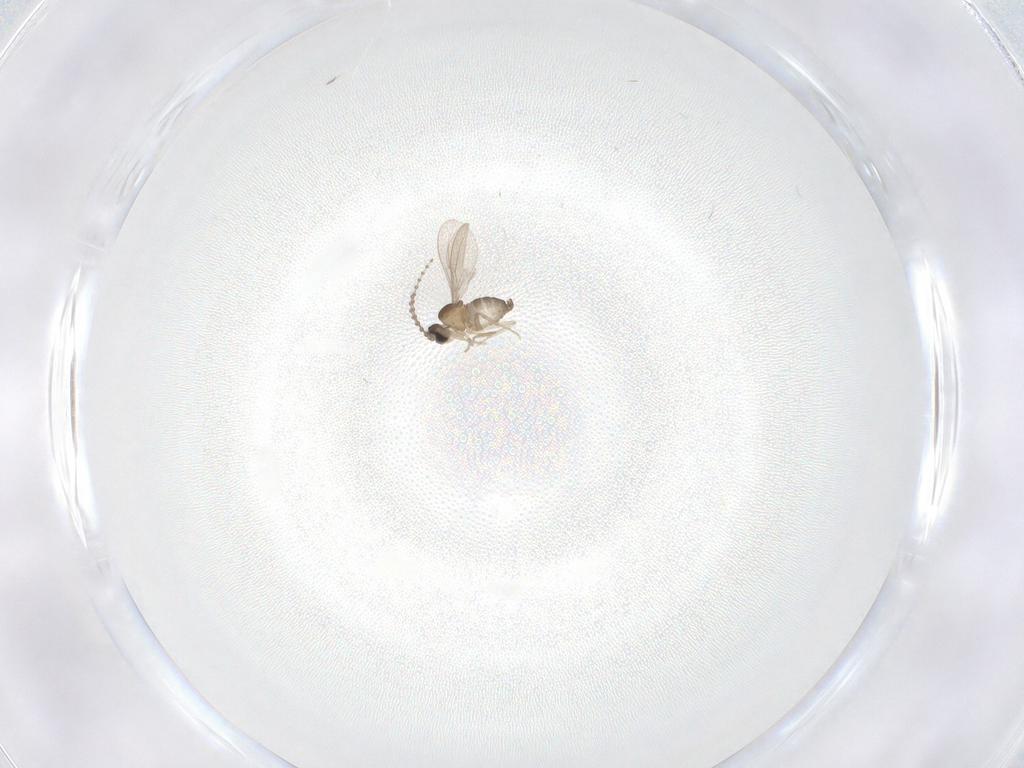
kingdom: Animalia
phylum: Arthropoda
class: Insecta
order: Diptera
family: Cecidomyiidae
